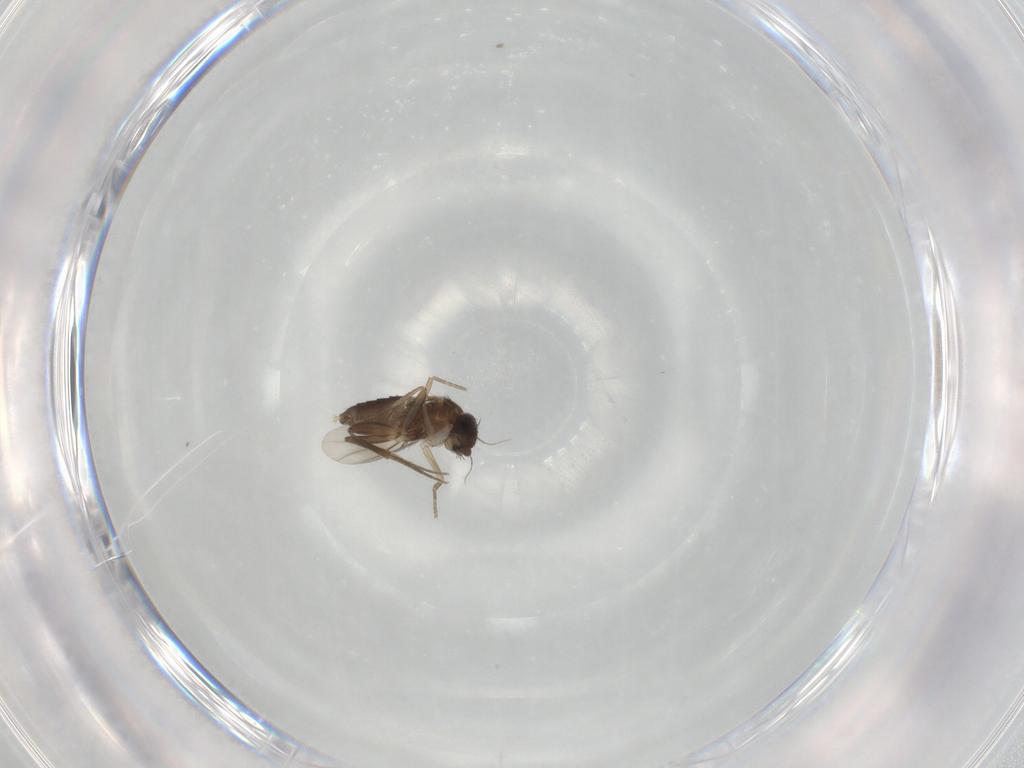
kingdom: Animalia
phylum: Arthropoda
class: Insecta
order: Diptera
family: Phoridae
